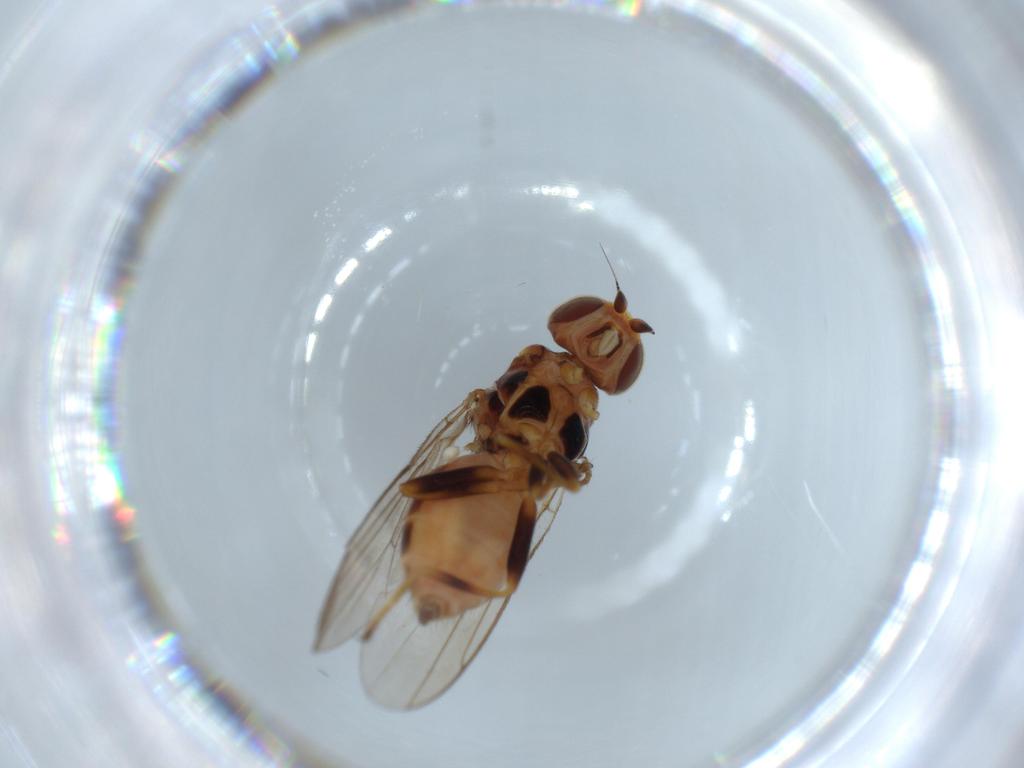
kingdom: Animalia
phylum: Arthropoda
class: Insecta
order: Diptera
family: Chloropidae
